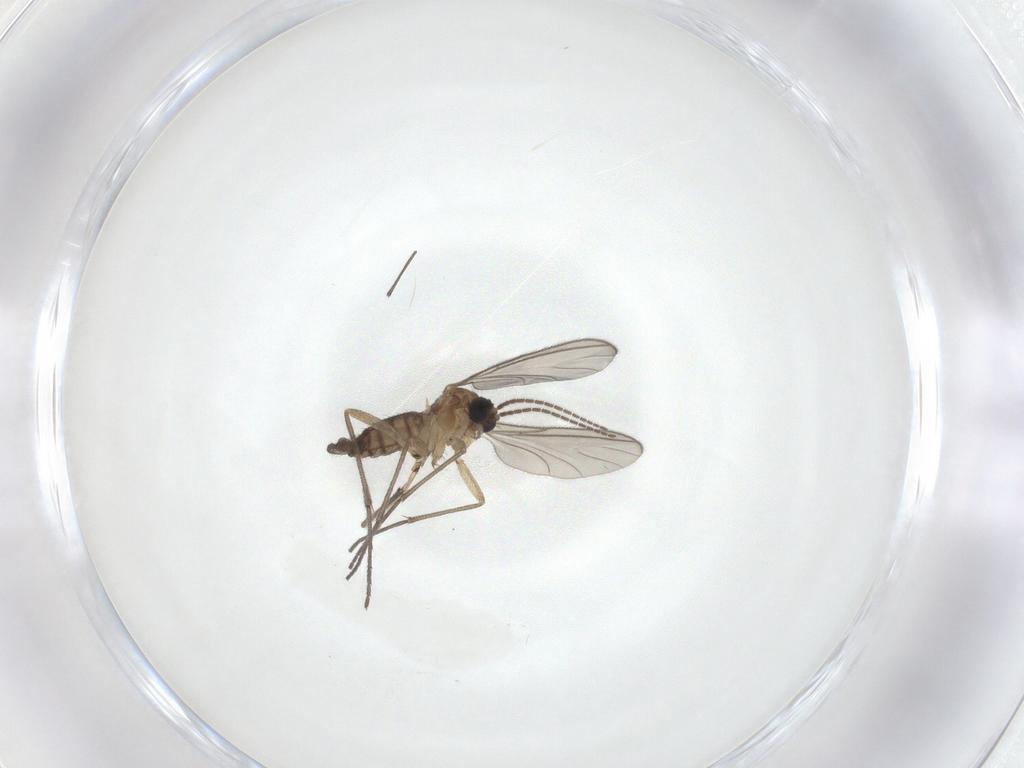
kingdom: Animalia
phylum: Arthropoda
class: Insecta
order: Diptera
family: Sciaridae
